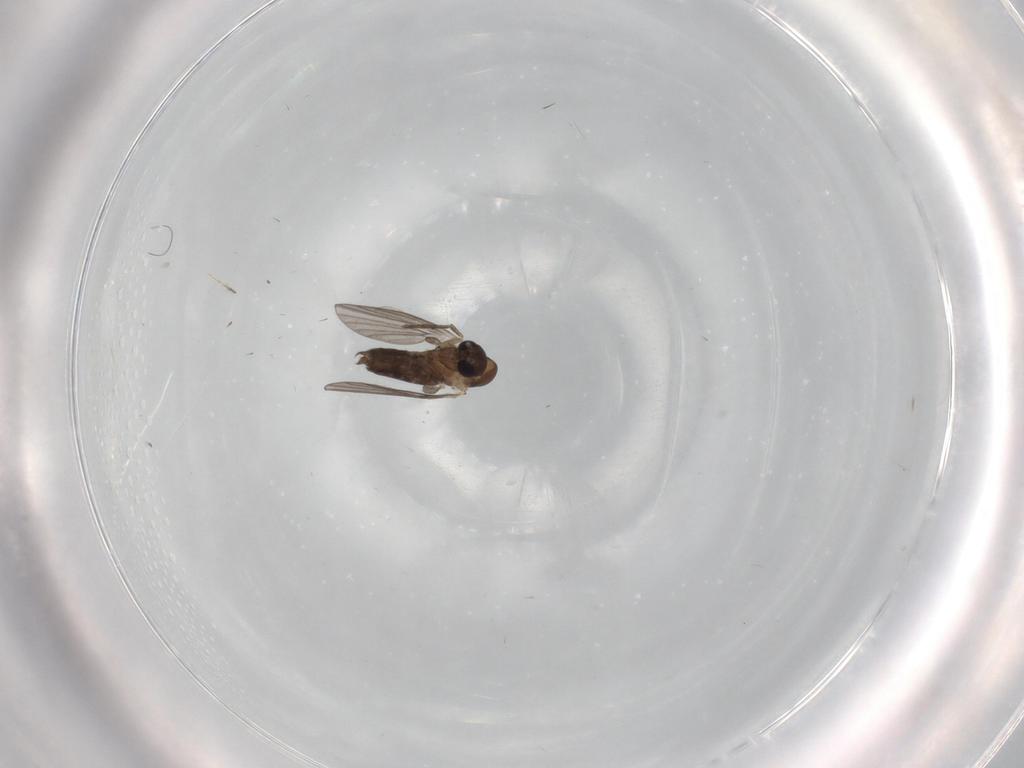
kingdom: Animalia
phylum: Arthropoda
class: Insecta
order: Diptera
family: Sciaridae
